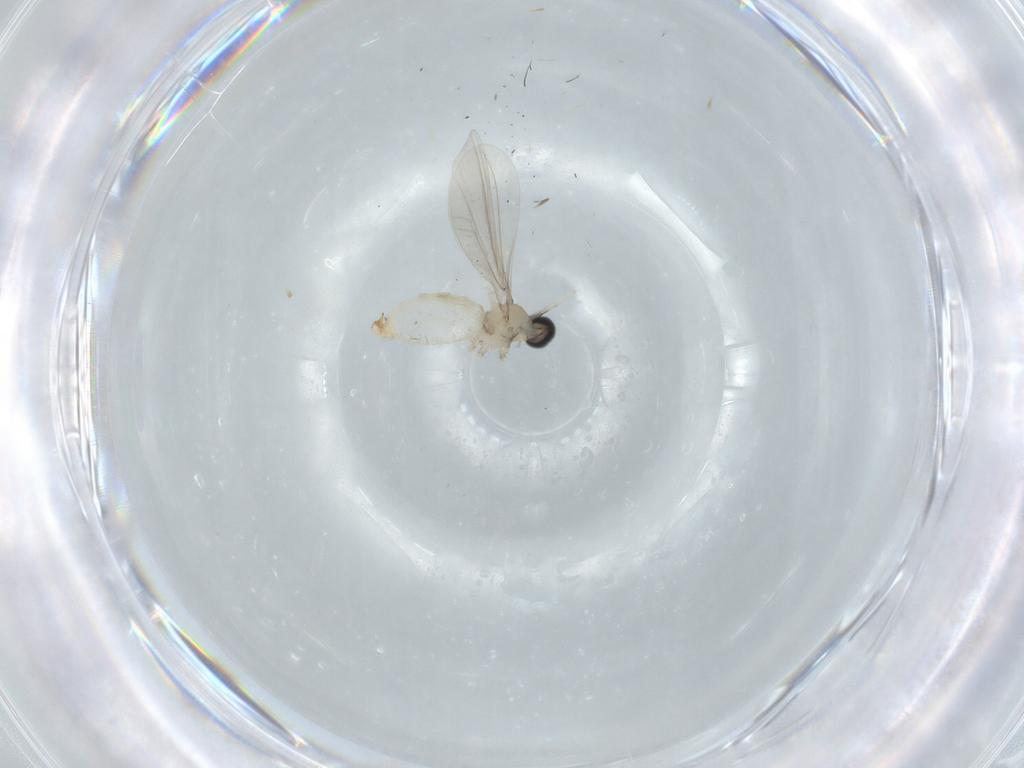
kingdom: Animalia
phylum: Arthropoda
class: Insecta
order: Diptera
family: Cecidomyiidae
